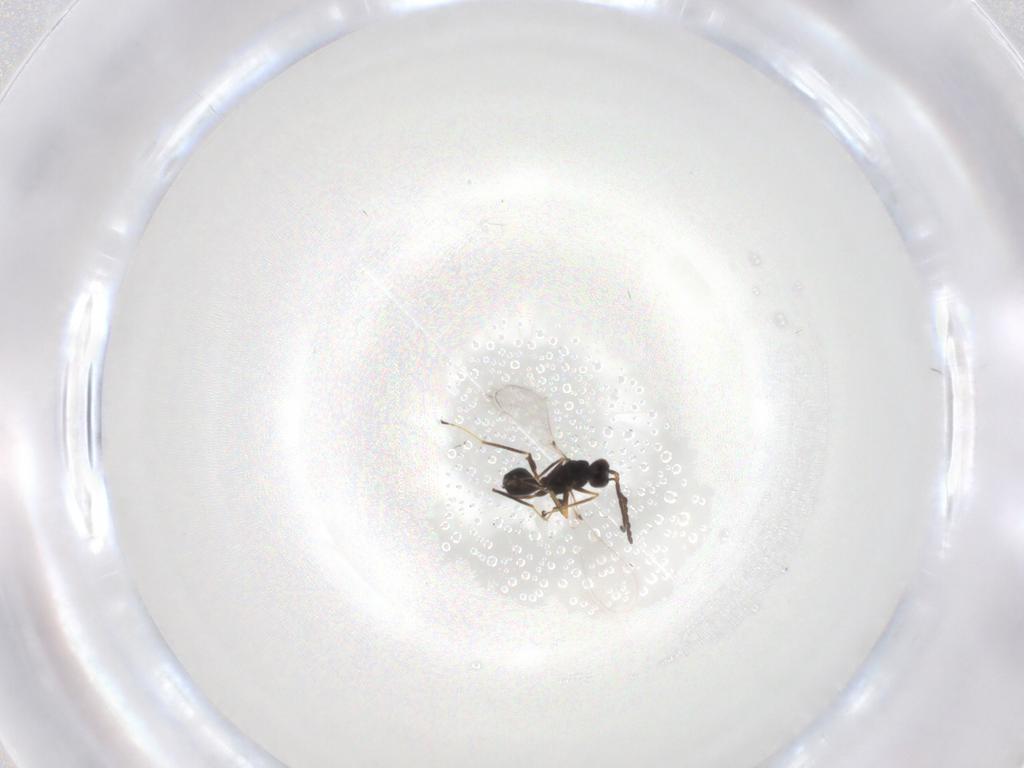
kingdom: Animalia
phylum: Arthropoda
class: Insecta
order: Hymenoptera
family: Mymaridae
